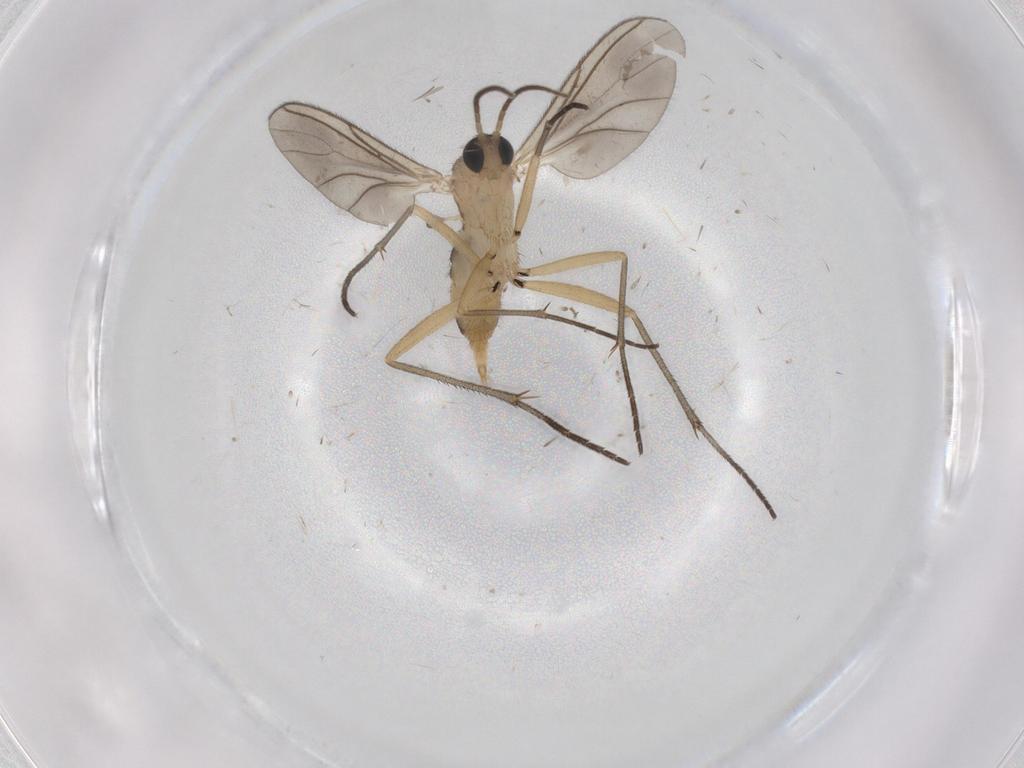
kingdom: Animalia
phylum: Arthropoda
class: Insecta
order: Diptera
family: Sciaridae
